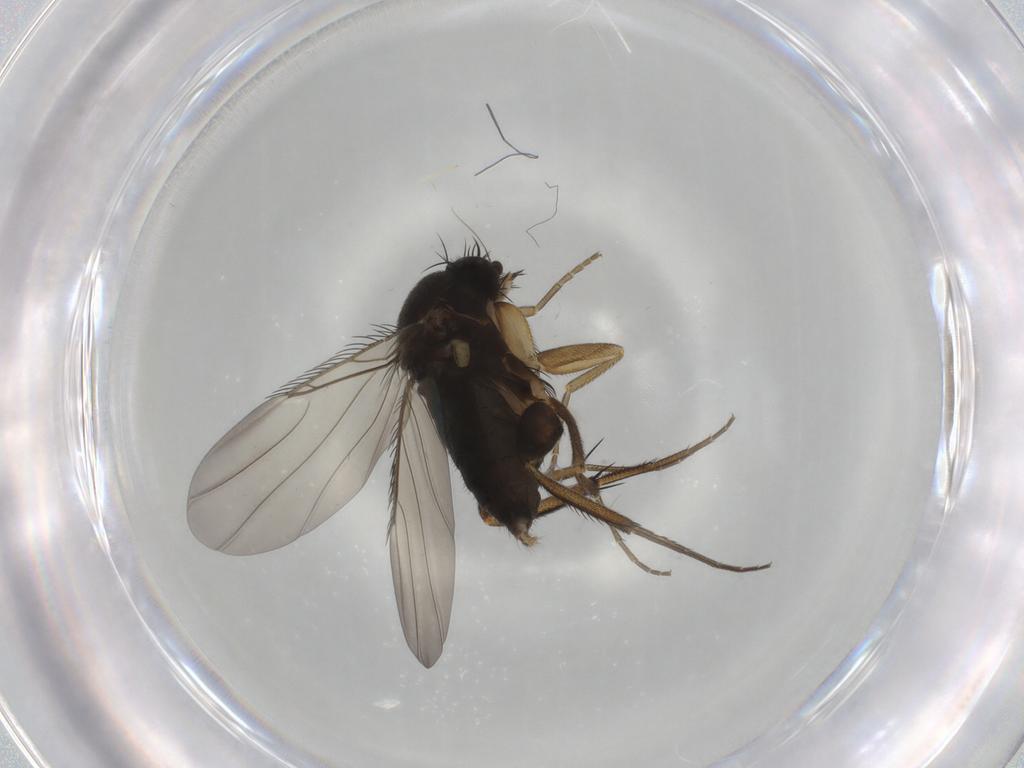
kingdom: Animalia
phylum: Arthropoda
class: Insecta
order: Diptera
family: Phoridae
